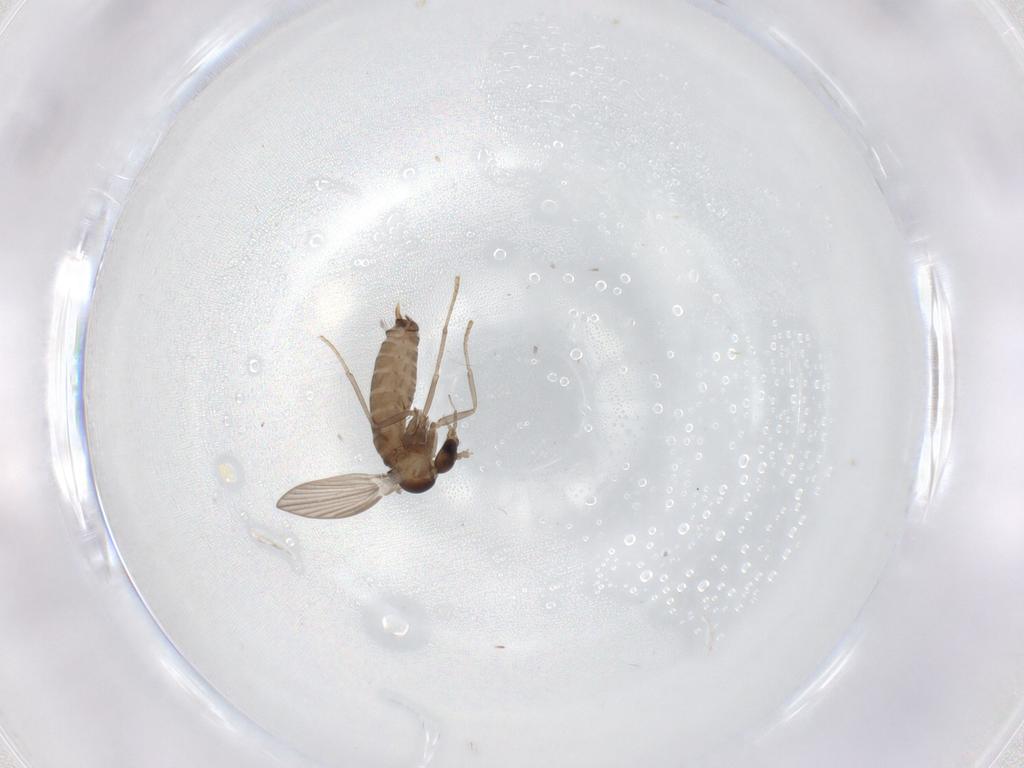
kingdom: Animalia
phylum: Arthropoda
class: Insecta
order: Diptera
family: Psychodidae
